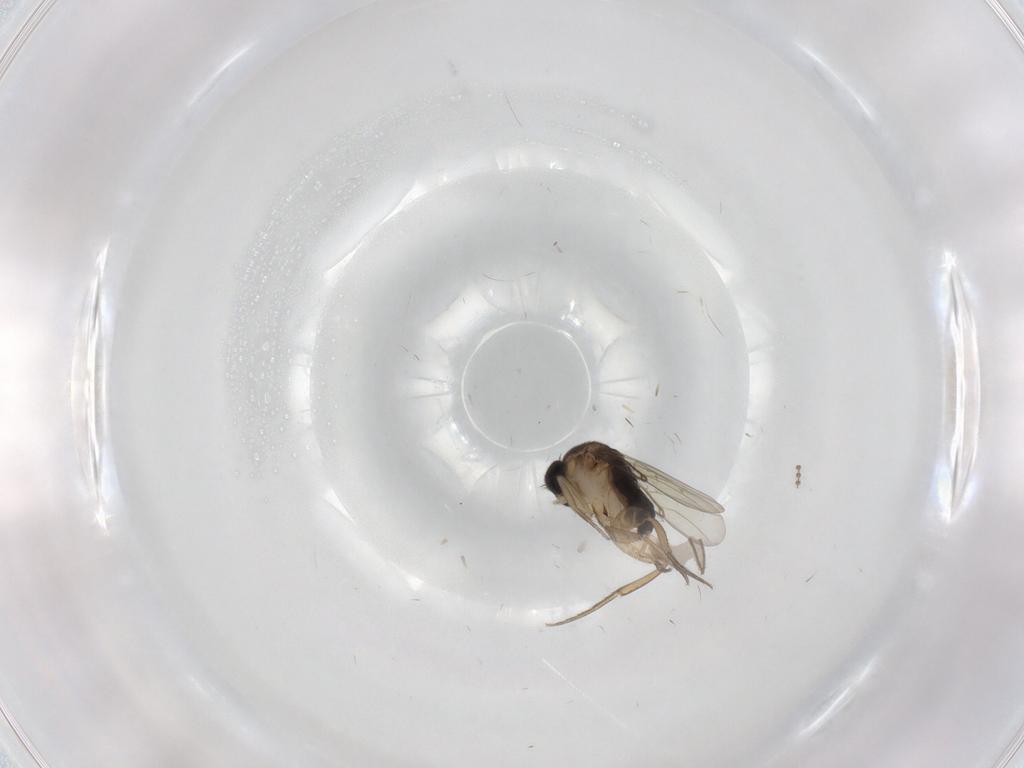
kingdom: Animalia
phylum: Arthropoda
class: Insecta
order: Diptera
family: Phoridae
